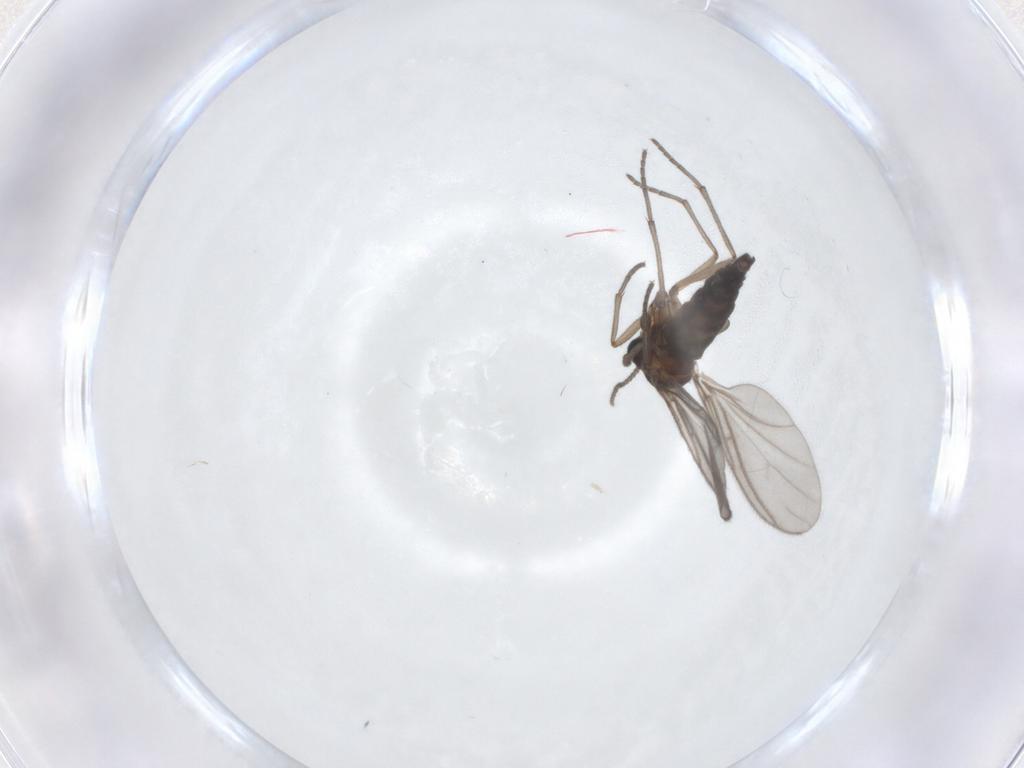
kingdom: Animalia
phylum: Arthropoda
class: Insecta
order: Diptera
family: Sciaridae
